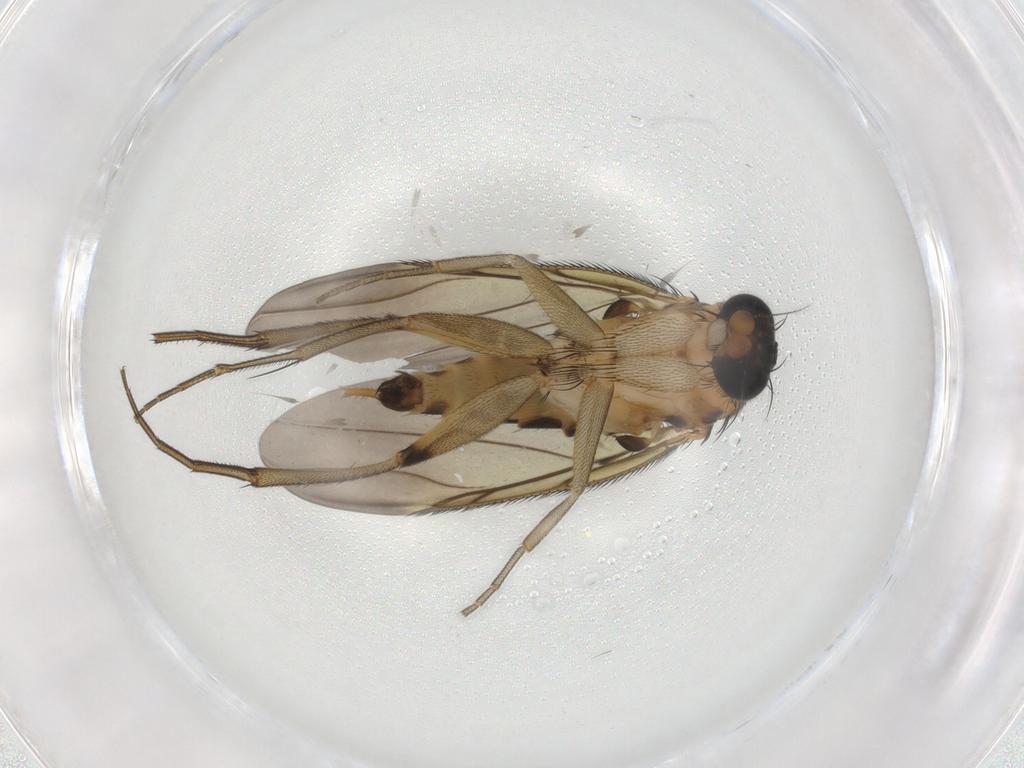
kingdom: Animalia
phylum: Arthropoda
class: Insecta
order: Diptera
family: Phoridae
